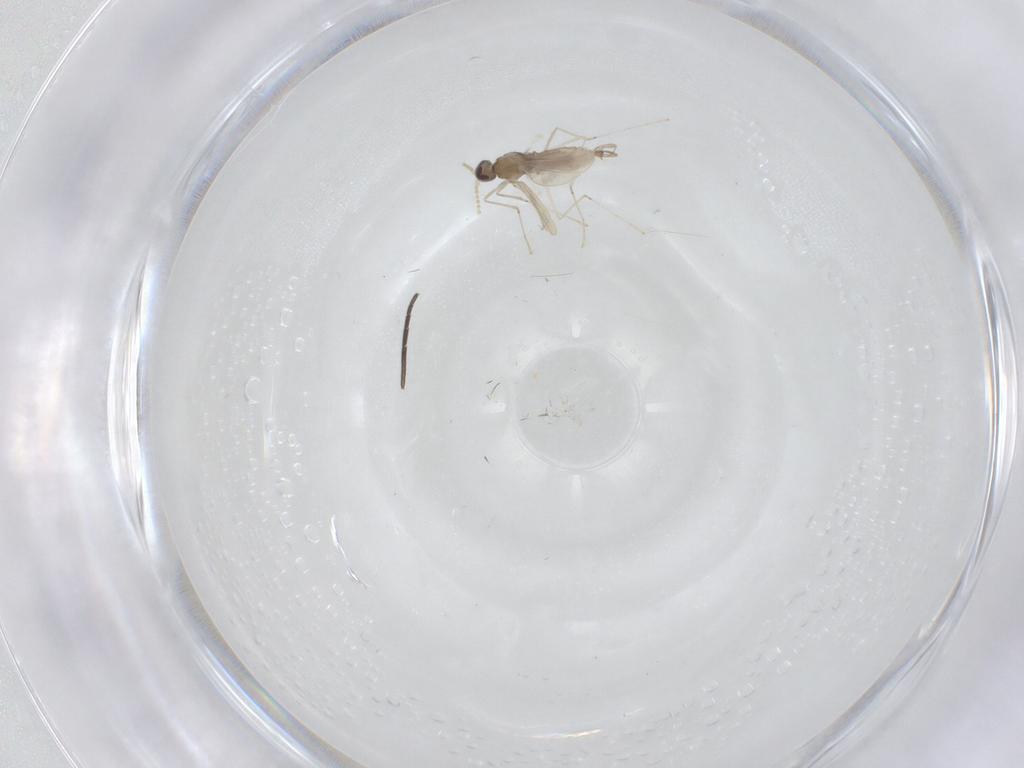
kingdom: Animalia
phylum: Arthropoda
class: Insecta
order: Diptera
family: Cecidomyiidae
